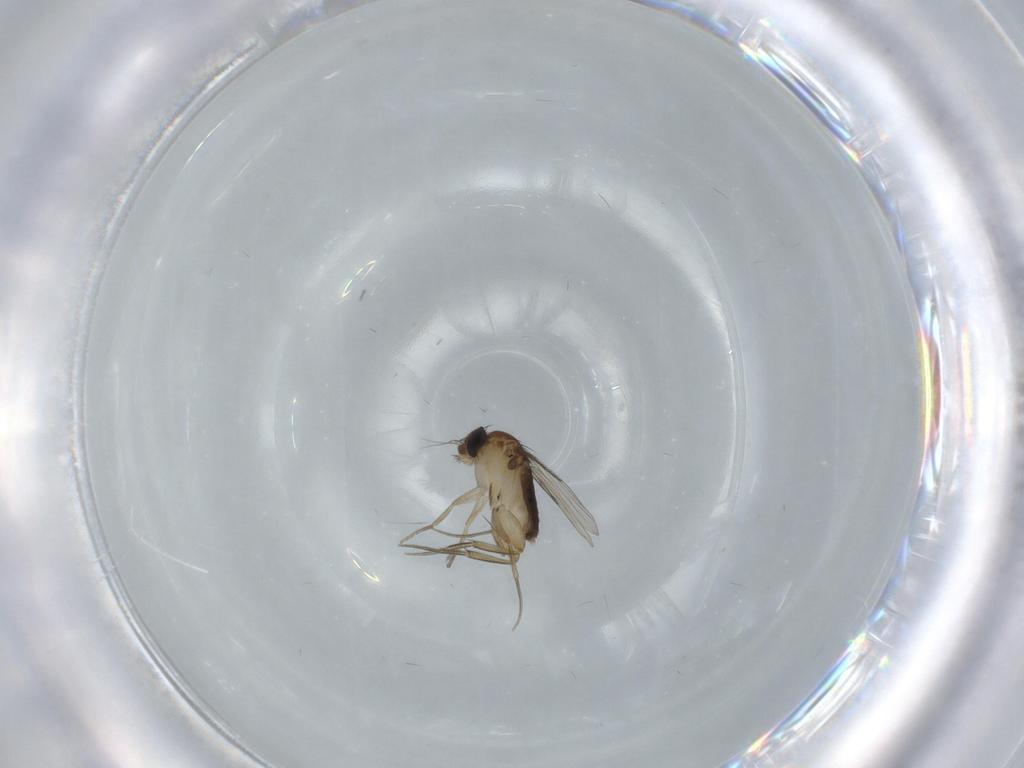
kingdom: Animalia
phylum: Arthropoda
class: Insecta
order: Diptera
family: Phoridae
